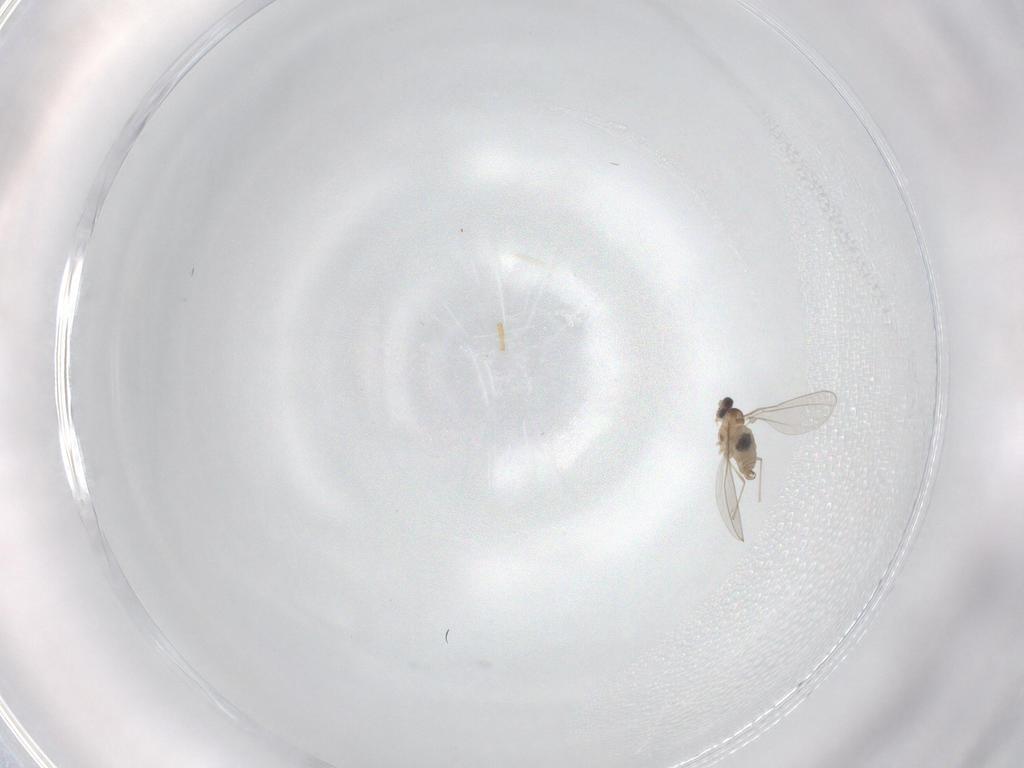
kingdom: Animalia
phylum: Arthropoda
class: Insecta
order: Diptera
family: Cecidomyiidae
